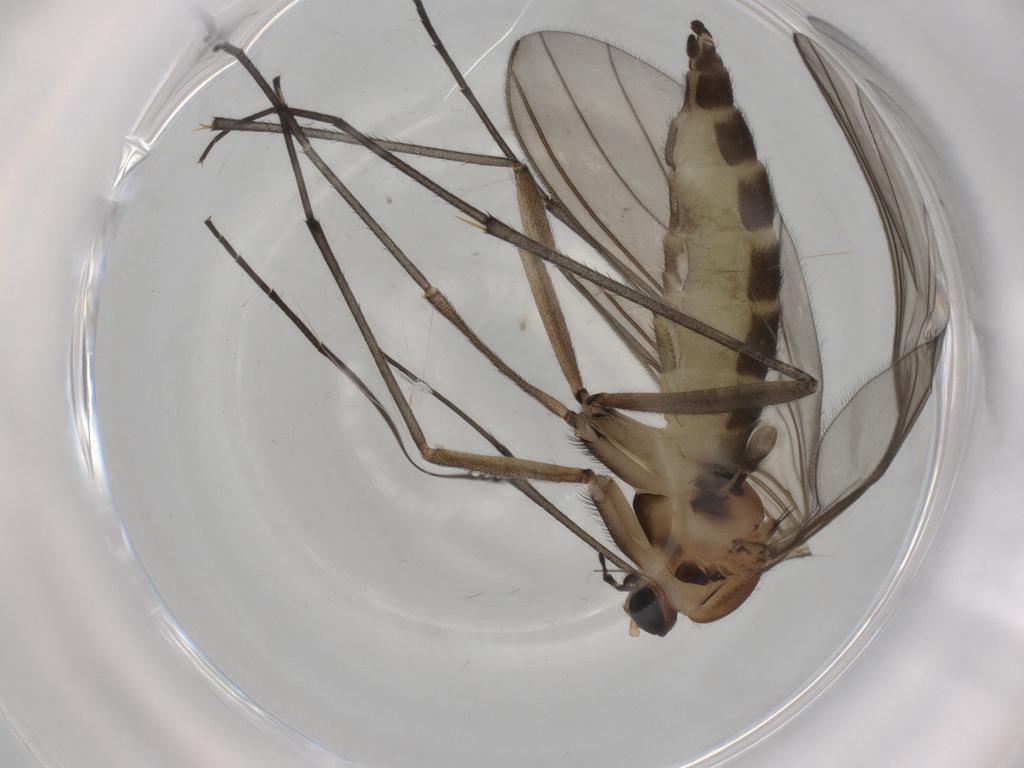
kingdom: Animalia
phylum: Arthropoda
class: Insecta
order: Diptera
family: Sciaridae
